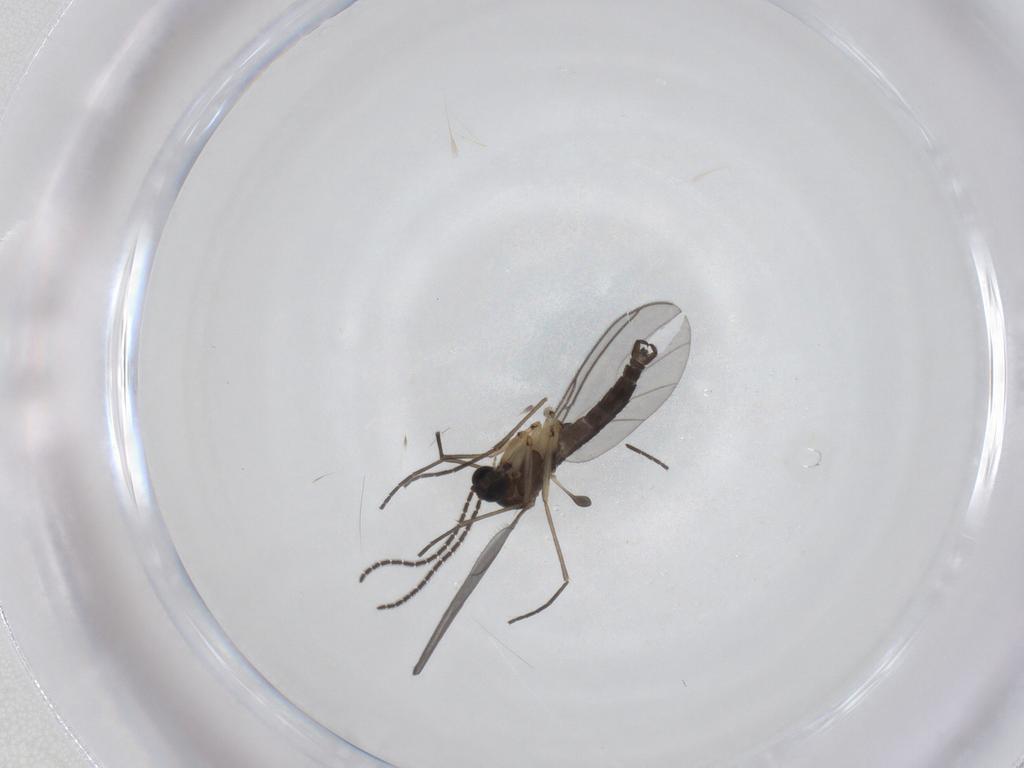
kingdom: Animalia
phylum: Arthropoda
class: Insecta
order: Diptera
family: Sciaridae
